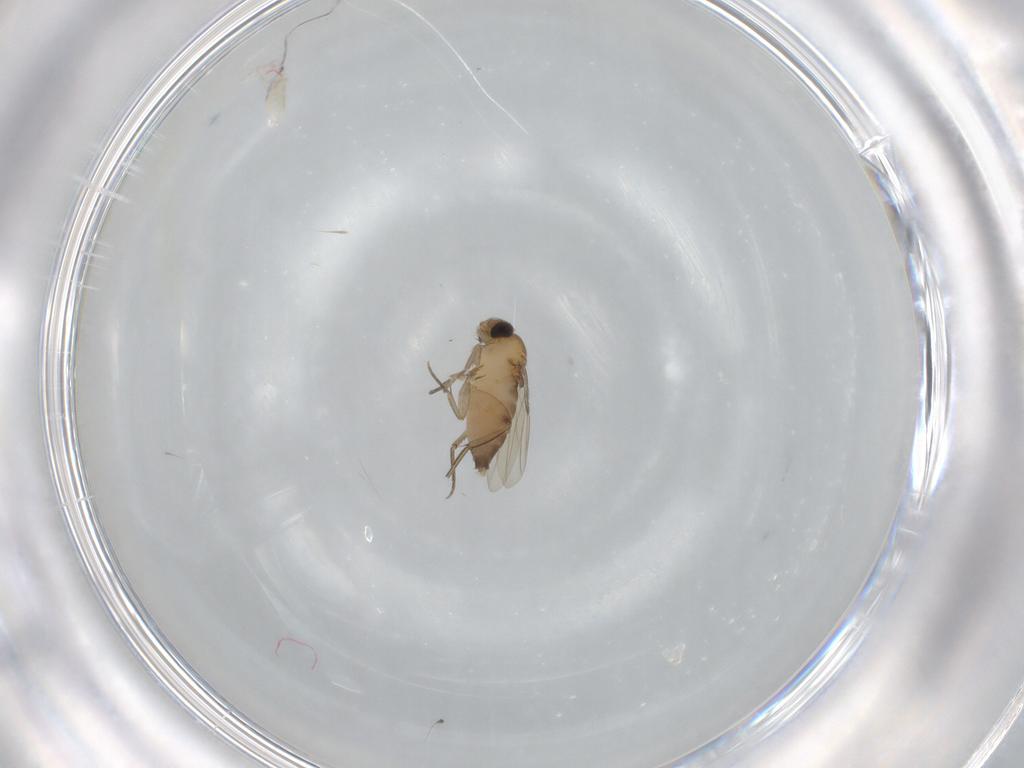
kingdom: Animalia
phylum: Arthropoda
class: Insecta
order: Diptera
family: Phoridae
